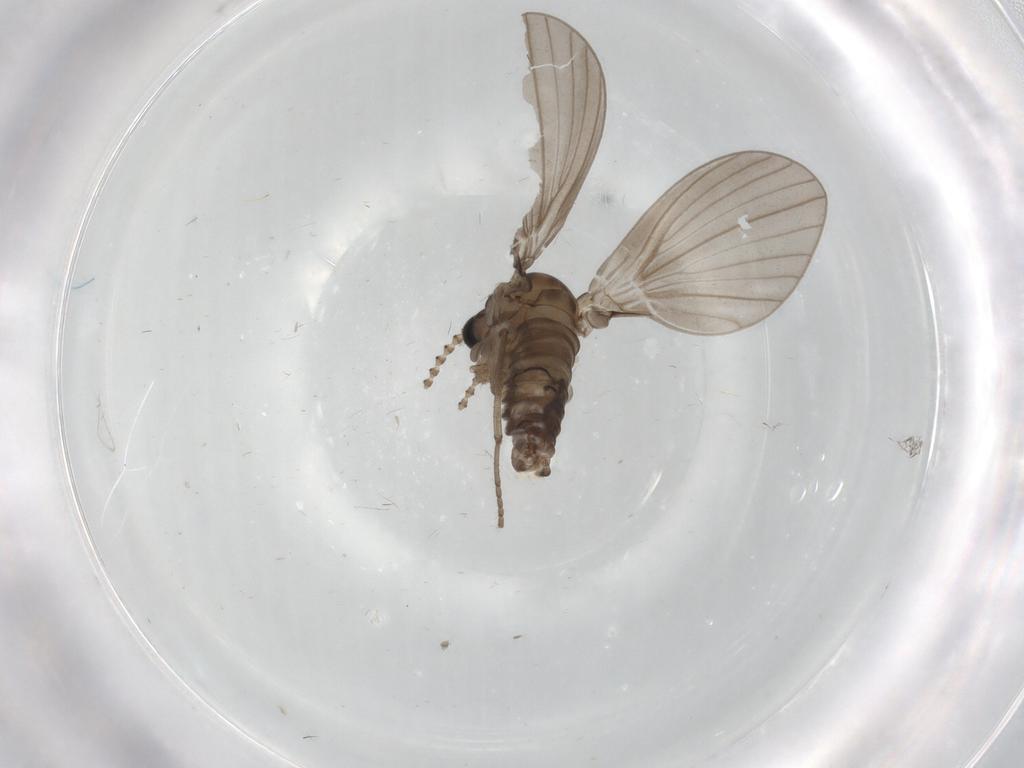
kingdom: Animalia
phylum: Arthropoda
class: Insecta
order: Diptera
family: Psychodidae
